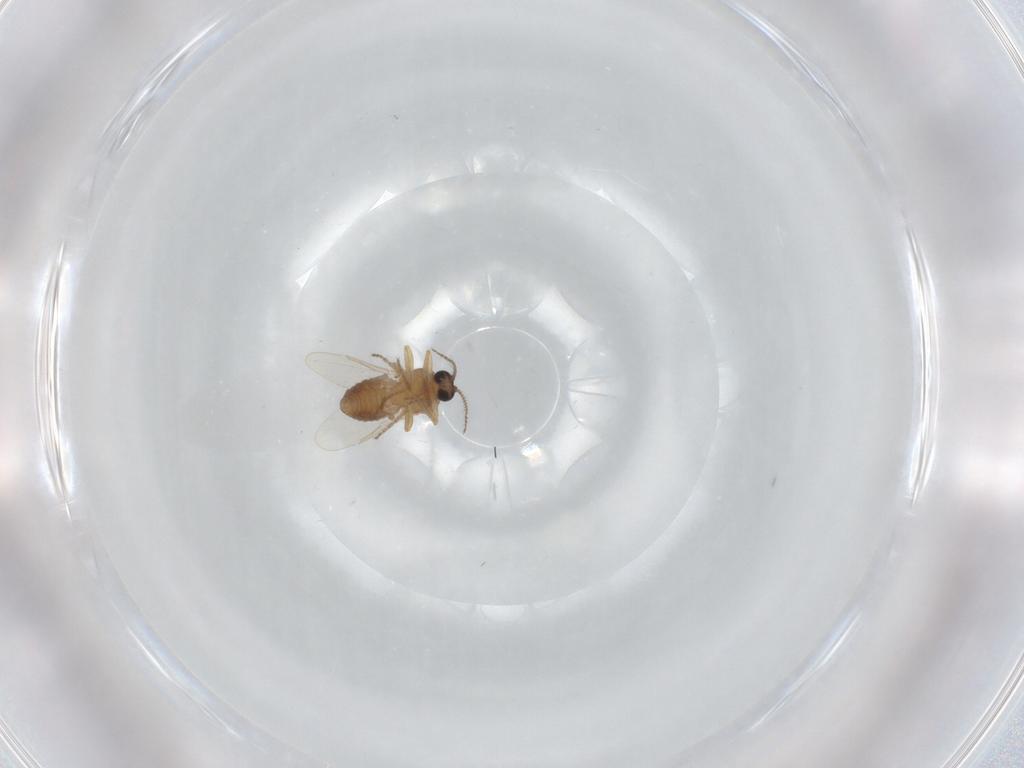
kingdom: Animalia
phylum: Arthropoda
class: Insecta
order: Diptera
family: Ceratopogonidae
